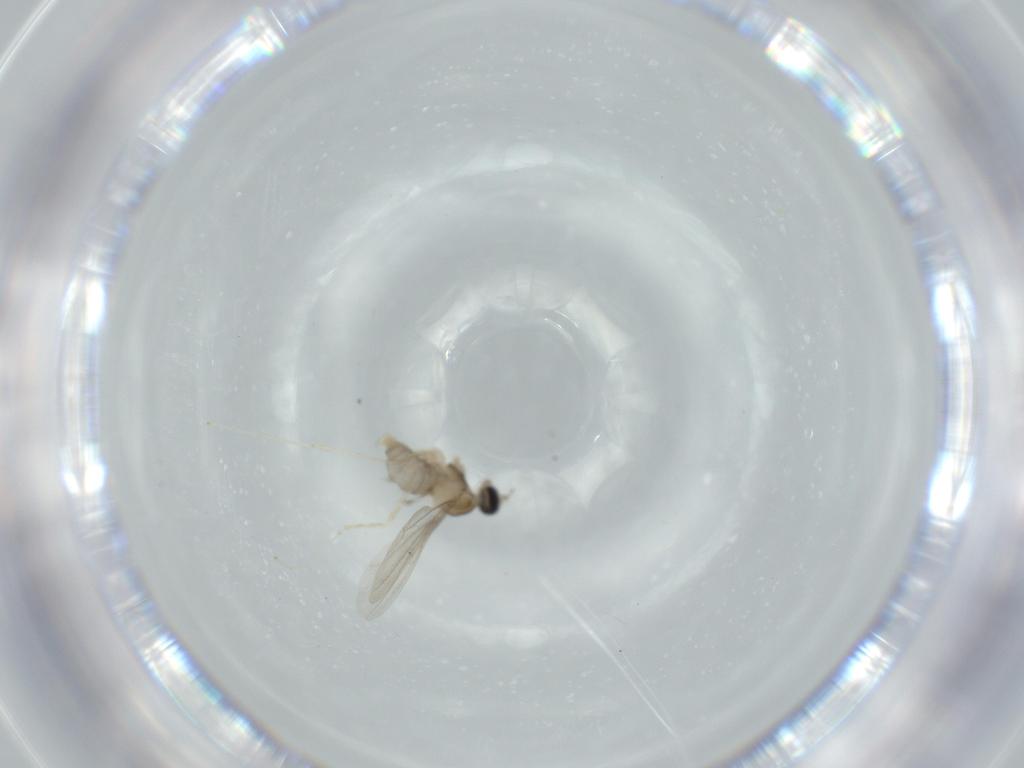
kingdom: Animalia
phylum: Arthropoda
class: Insecta
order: Diptera
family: Cecidomyiidae
